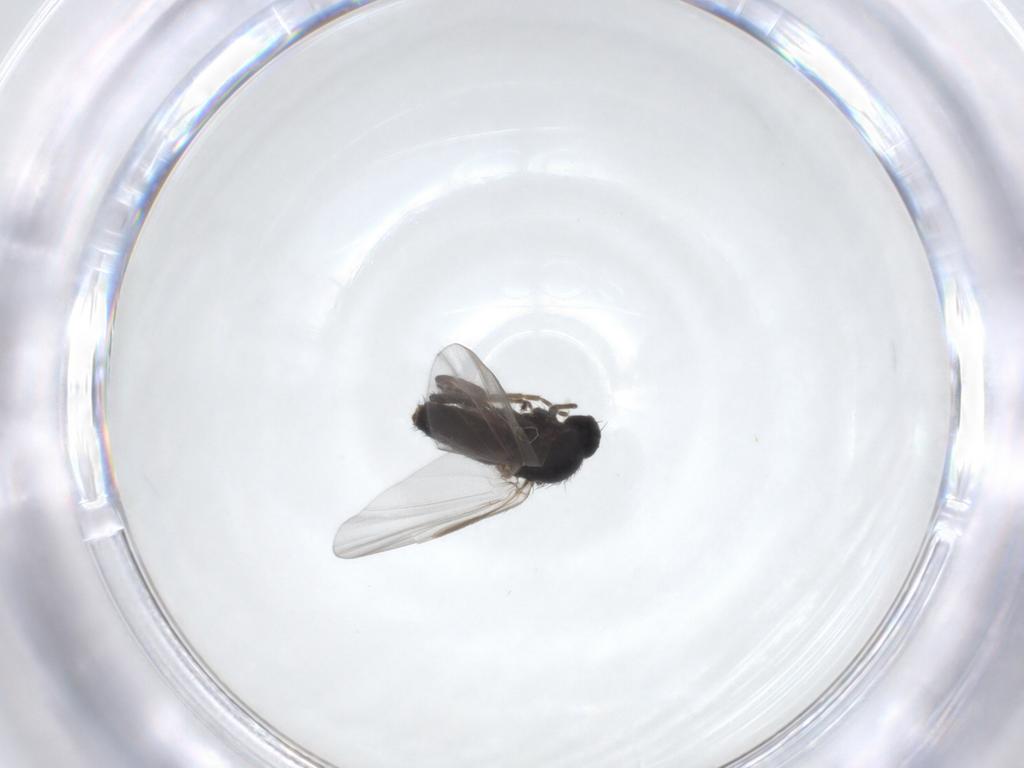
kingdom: Animalia
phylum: Arthropoda
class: Insecta
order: Diptera
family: Platypezidae
